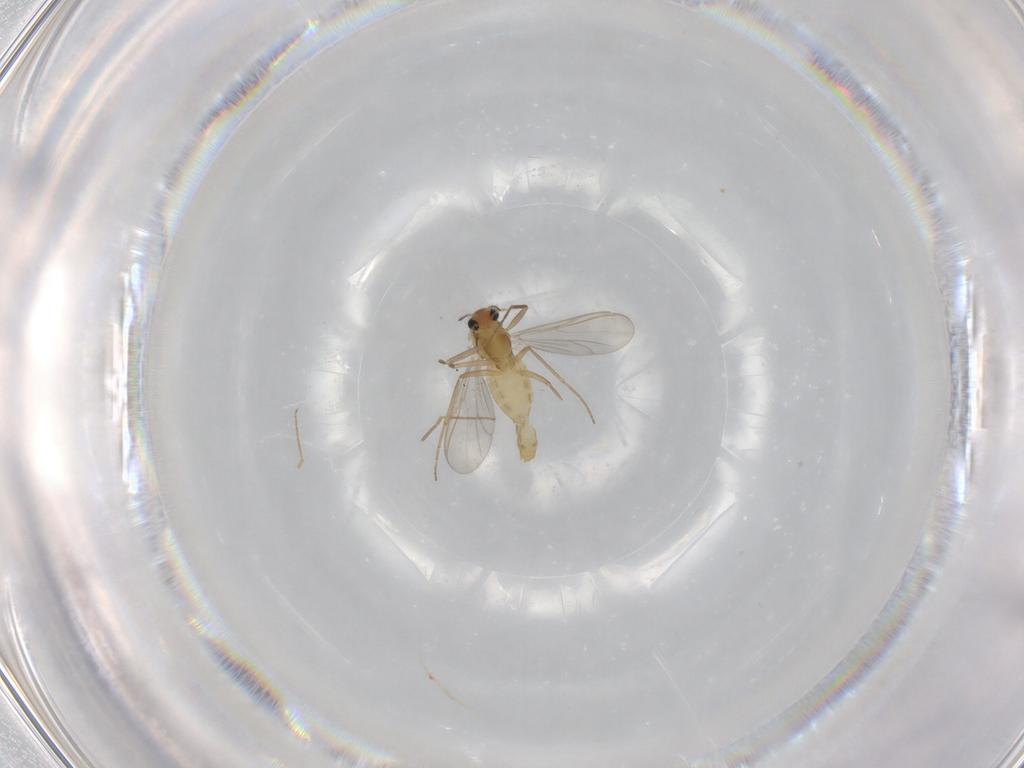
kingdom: Animalia
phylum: Arthropoda
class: Insecta
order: Diptera
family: Chironomidae
